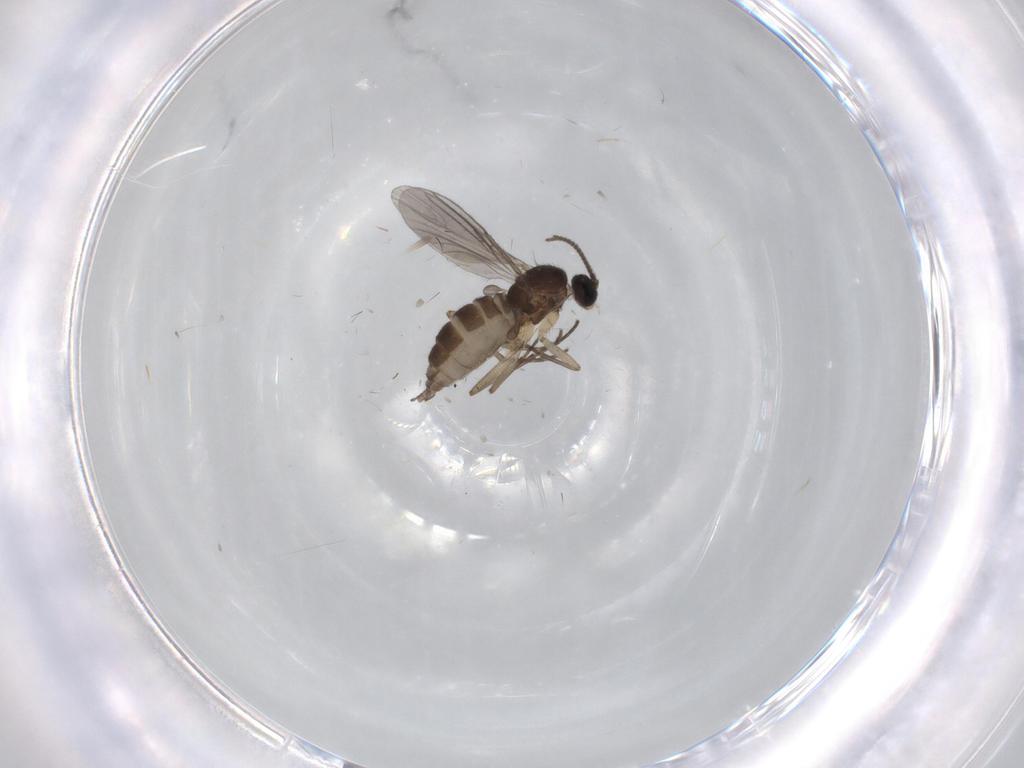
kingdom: Animalia
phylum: Arthropoda
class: Insecta
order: Diptera
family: Sciaridae
